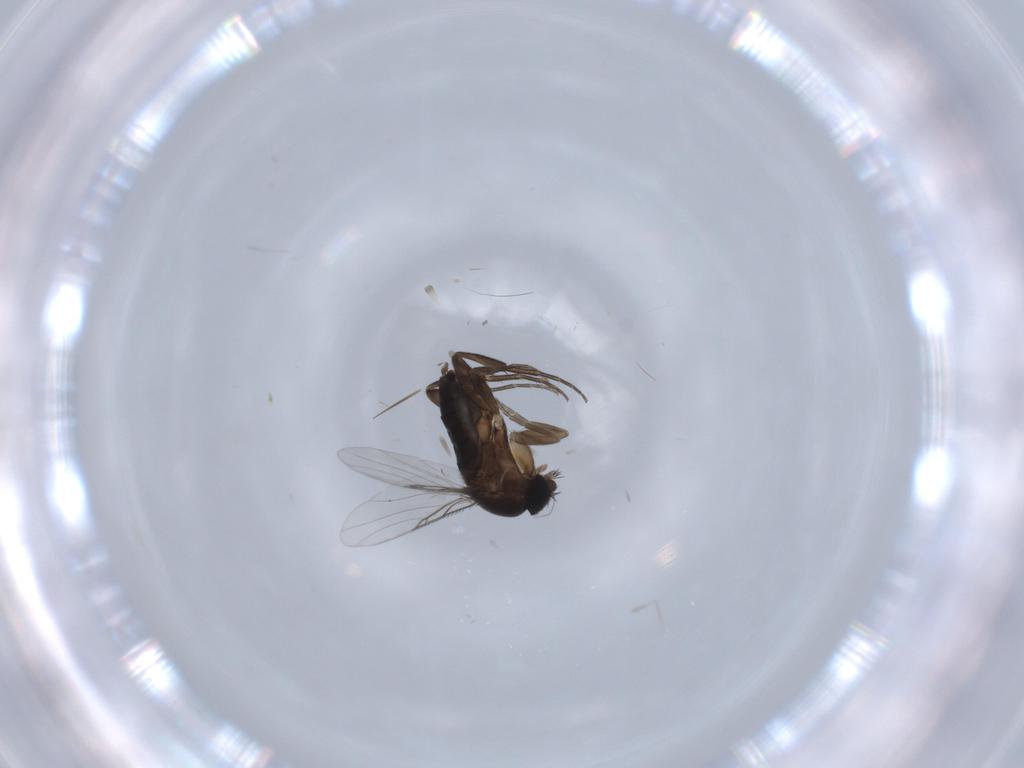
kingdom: Animalia
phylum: Arthropoda
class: Insecta
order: Diptera
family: Phoridae
